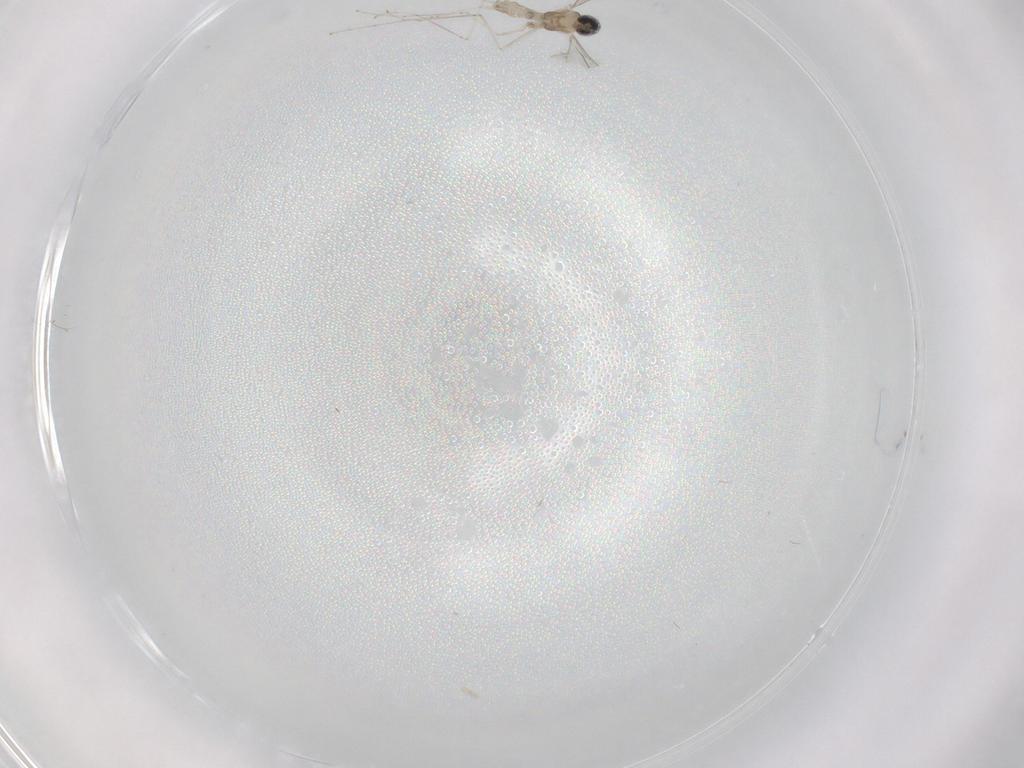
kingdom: Animalia
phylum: Arthropoda
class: Insecta
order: Diptera
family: Cecidomyiidae
